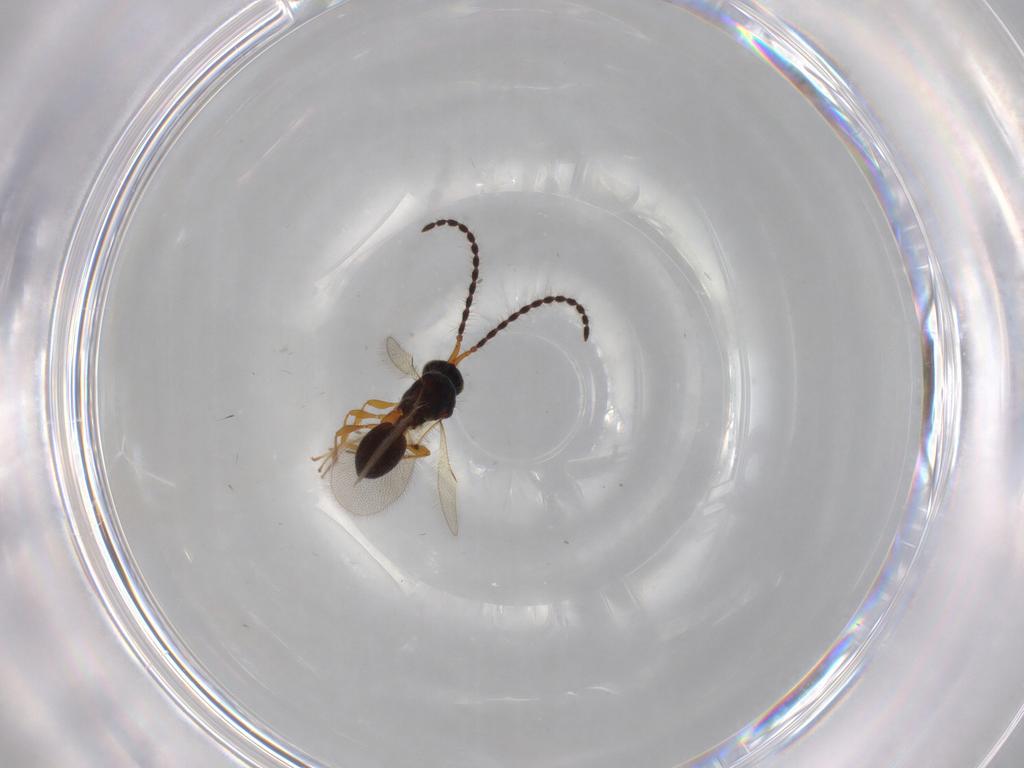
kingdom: Animalia
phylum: Arthropoda
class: Insecta
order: Hymenoptera
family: Diapriidae
